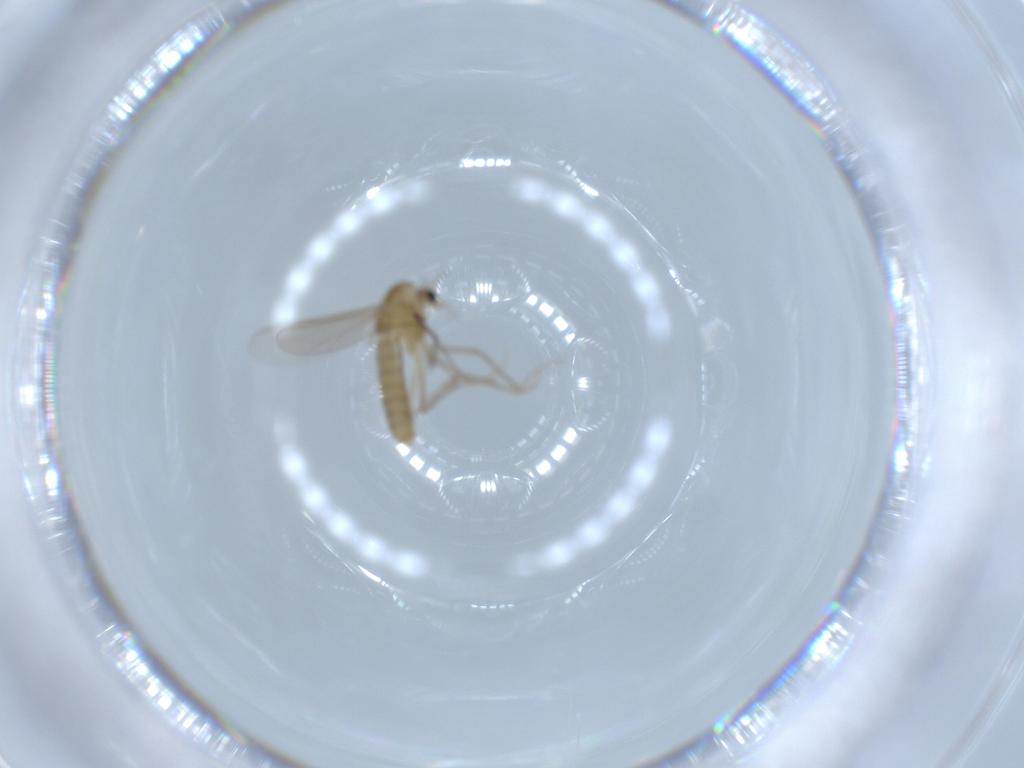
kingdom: Animalia
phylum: Arthropoda
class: Insecta
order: Diptera
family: Chironomidae
